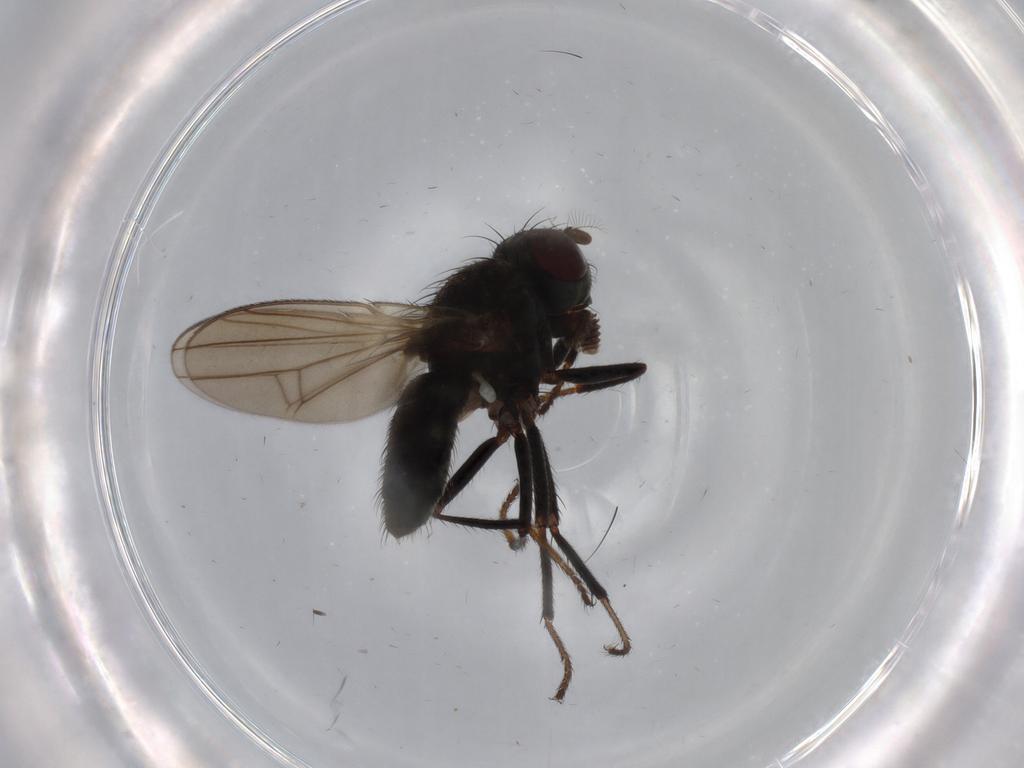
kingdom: Animalia
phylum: Arthropoda
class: Insecta
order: Diptera
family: Ephydridae
